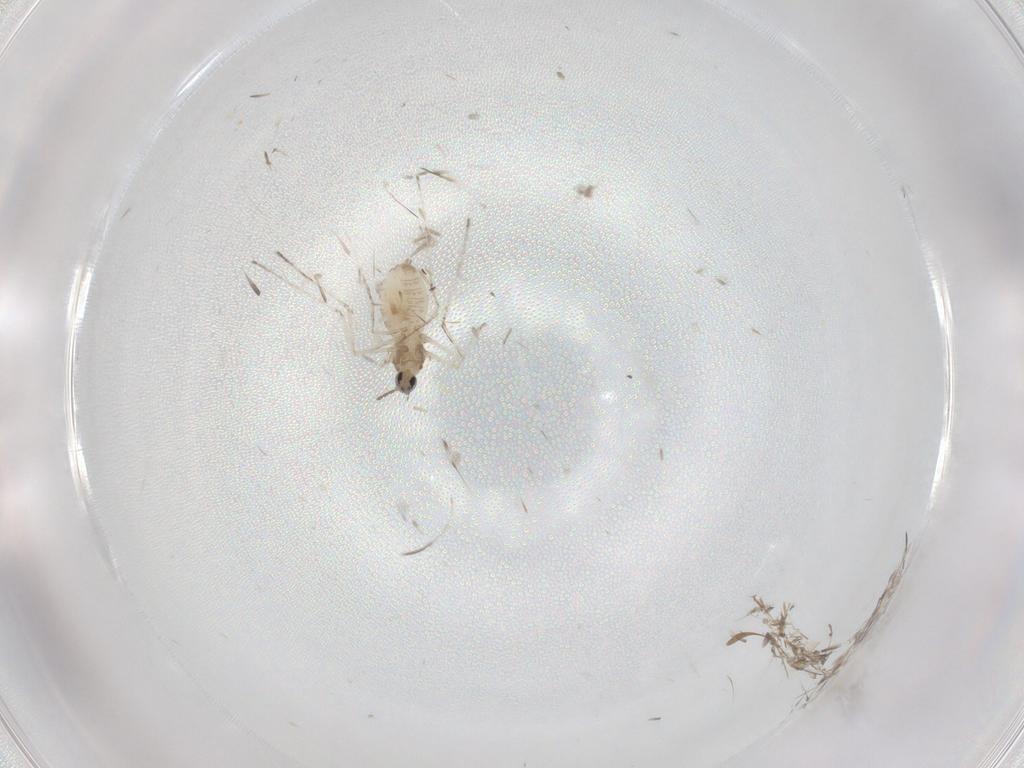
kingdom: Animalia
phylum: Arthropoda
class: Insecta
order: Diptera
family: Cecidomyiidae
